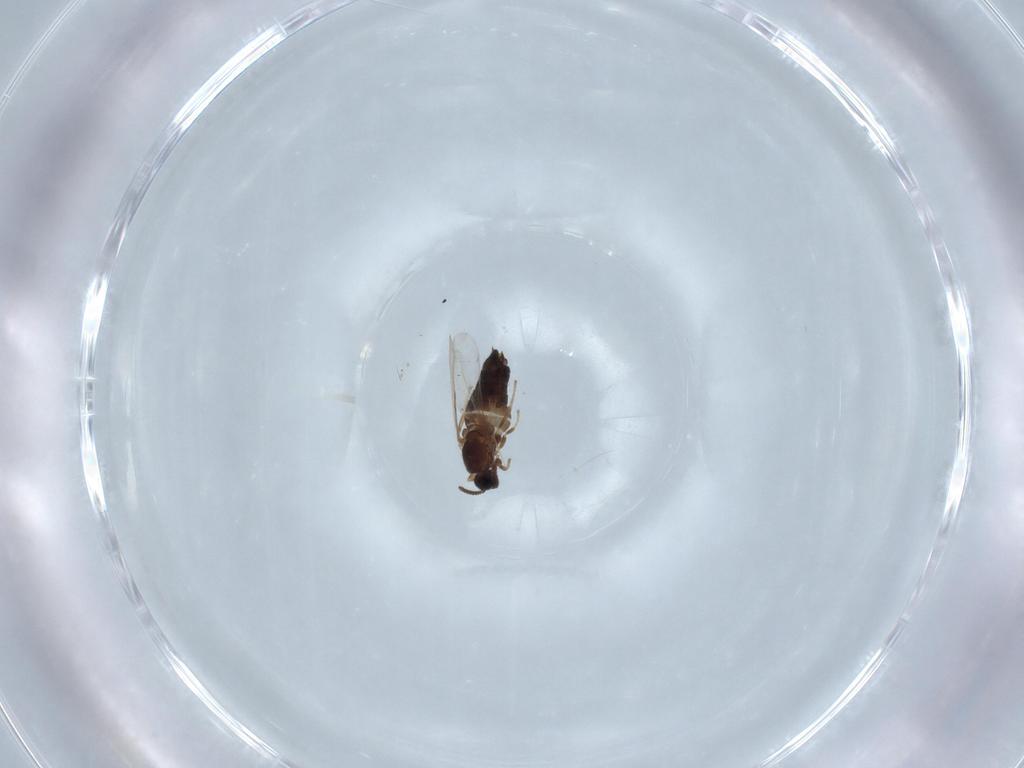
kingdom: Animalia
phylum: Arthropoda
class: Insecta
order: Diptera
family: Scatopsidae
